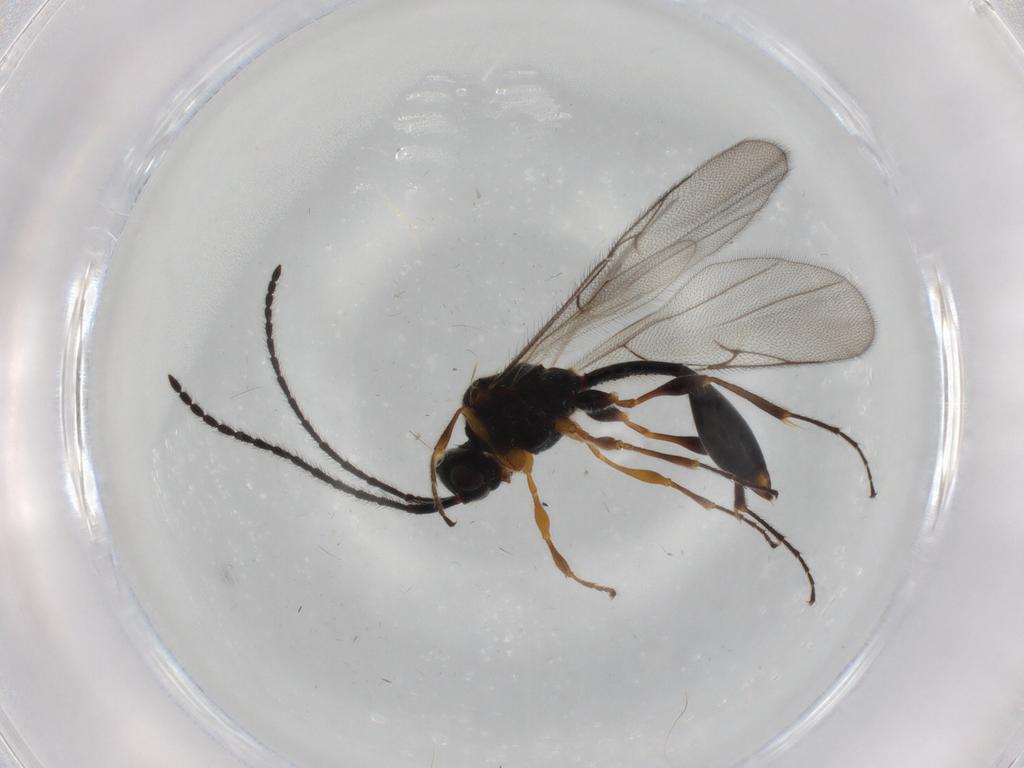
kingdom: Animalia
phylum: Arthropoda
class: Insecta
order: Hymenoptera
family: Diapriidae
